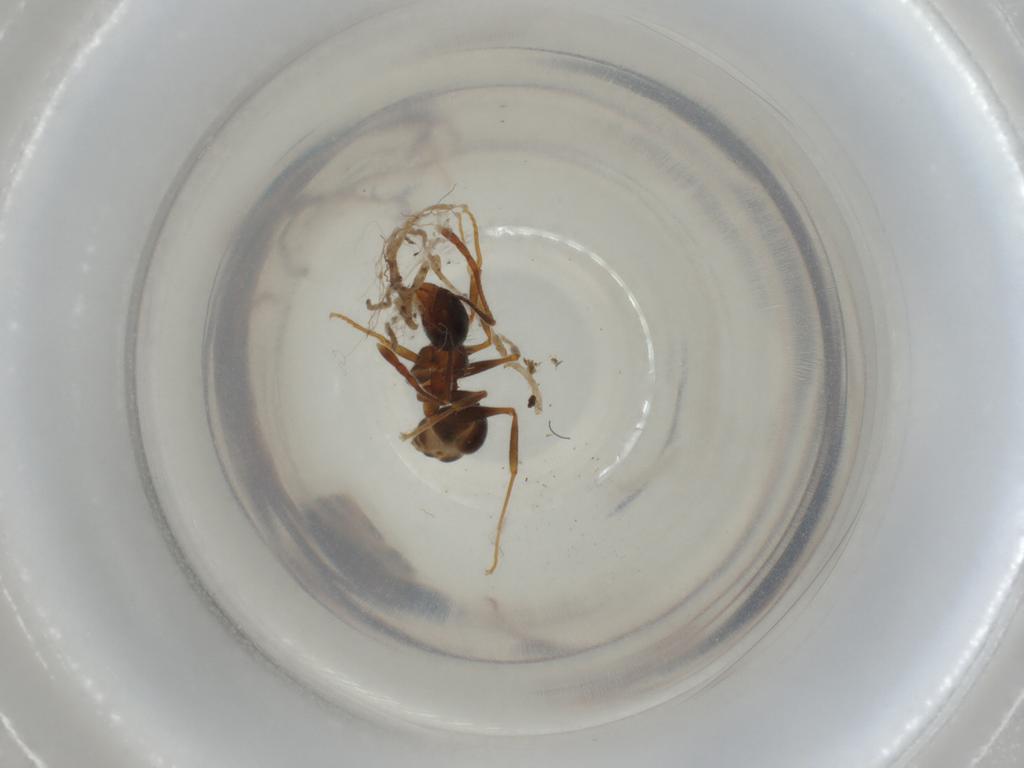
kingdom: Animalia
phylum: Arthropoda
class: Insecta
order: Hymenoptera
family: Formicidae
